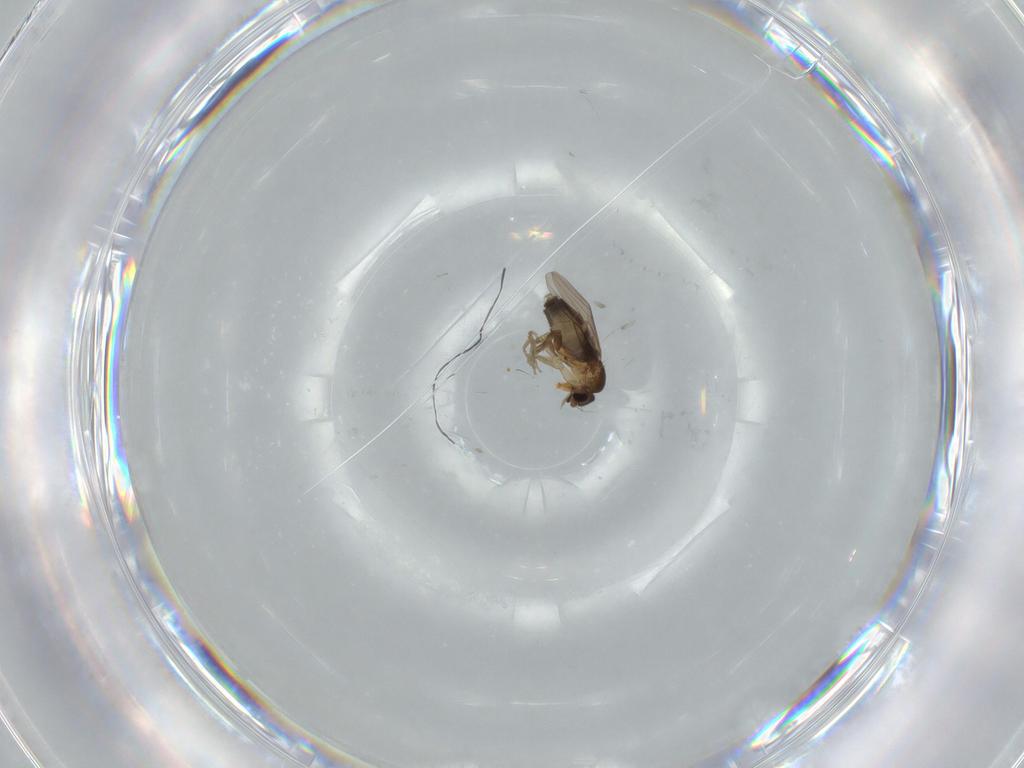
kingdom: Animalia
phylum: Arthropoda
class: Insecta
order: Diptera
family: Phoridae
